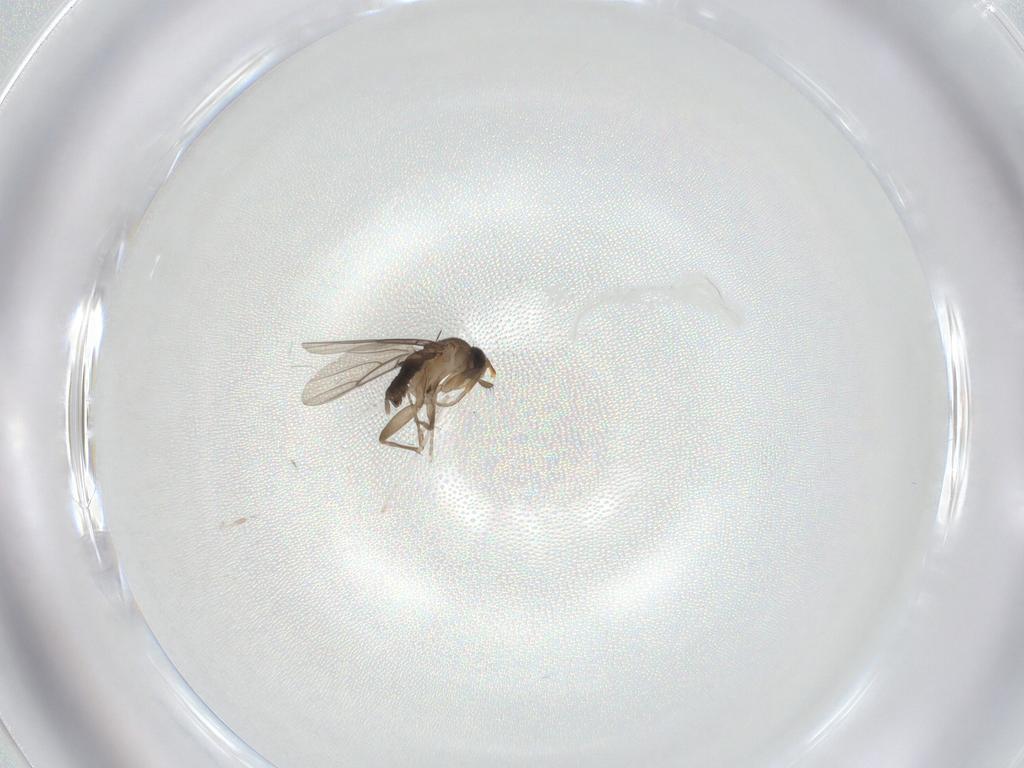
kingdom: Animalia
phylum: Arthropoda
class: Insecta
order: Diptera
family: Phoridae
